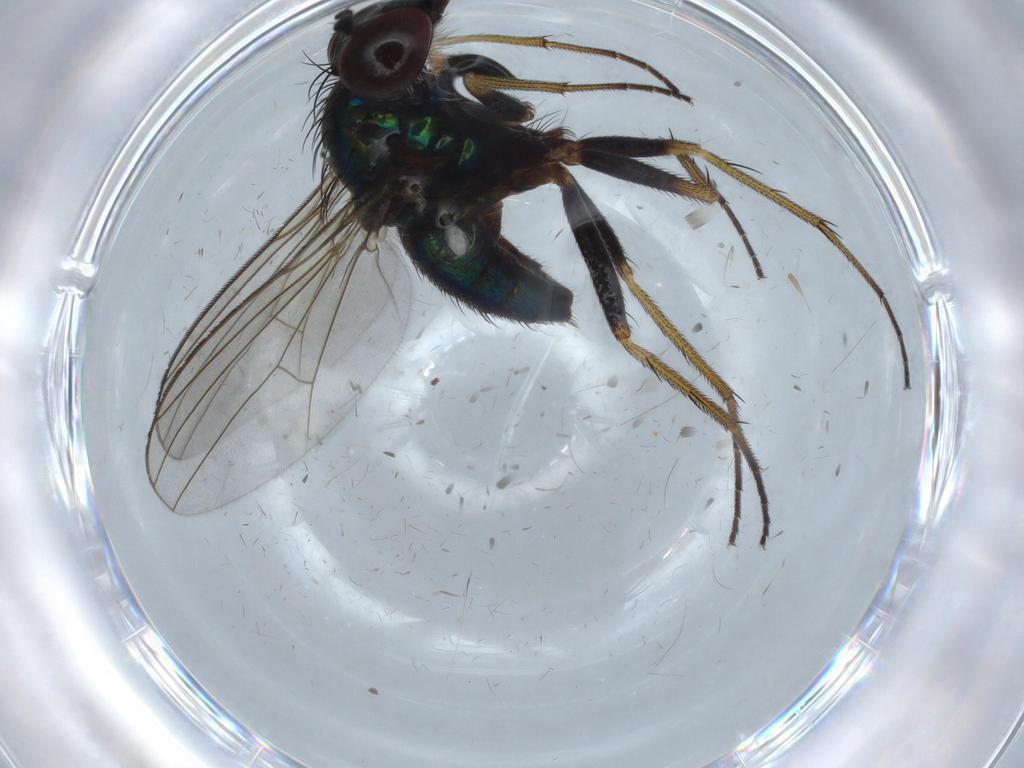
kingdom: Animalia
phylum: Arthropoda
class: Insecta
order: Diptera
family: Dolichopodidae
